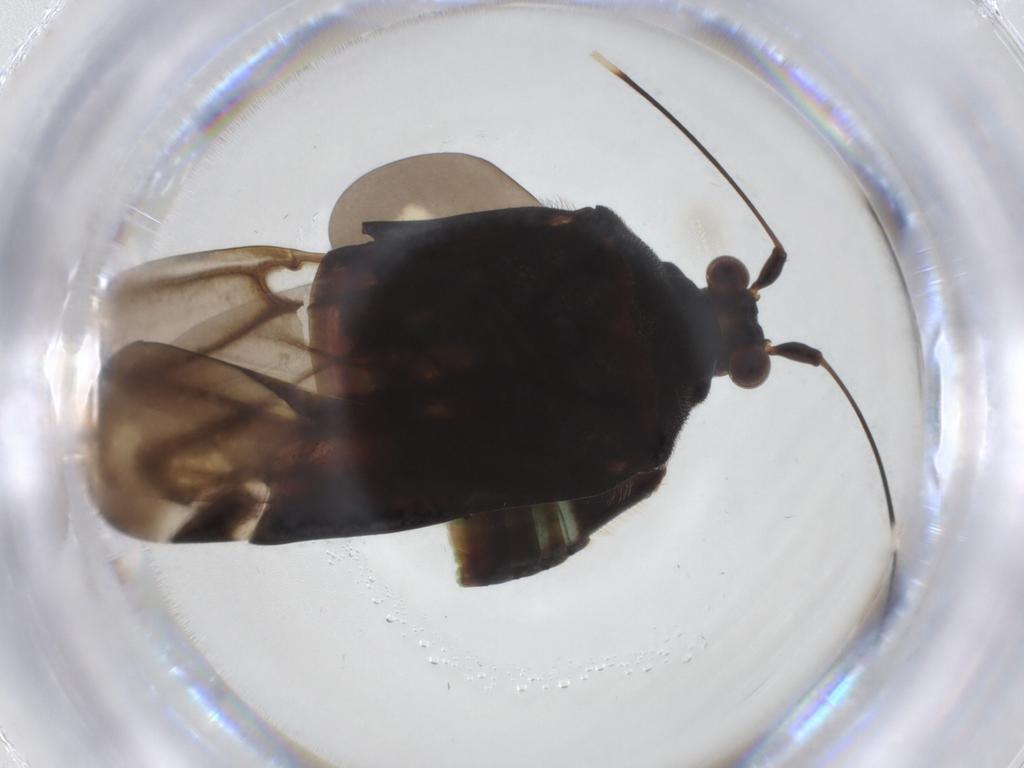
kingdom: Animalia
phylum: Arthropoda
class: Insecta
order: Hemiptera
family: Miridae
